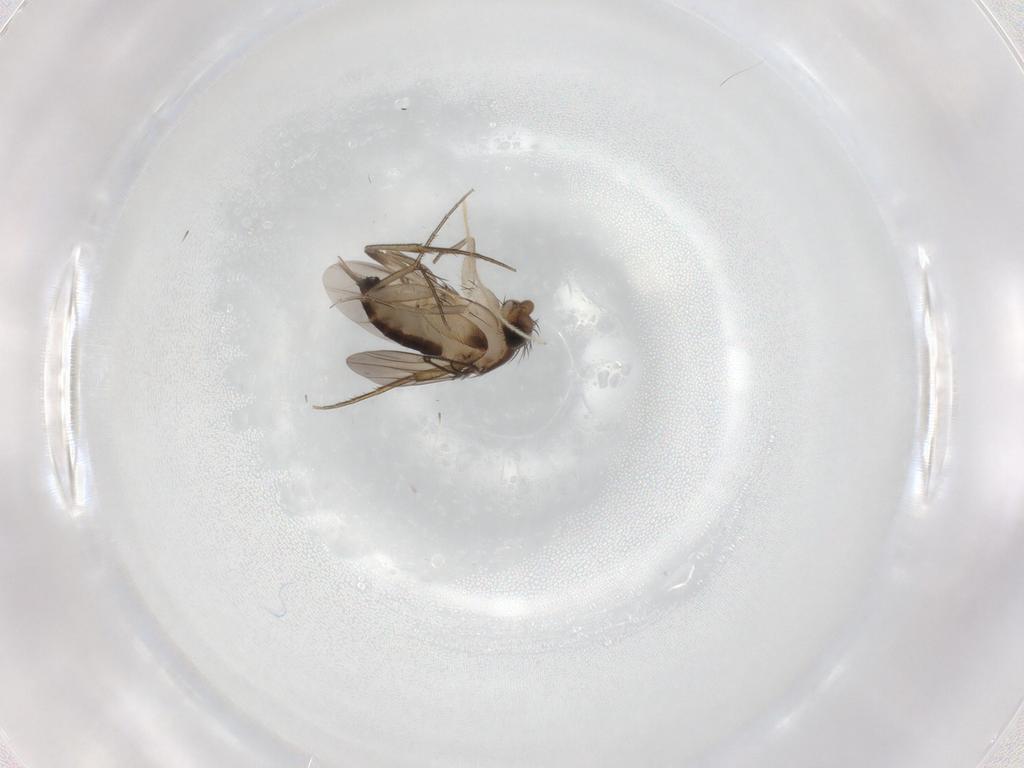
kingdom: Animalia
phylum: Arthropoda
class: Insecta
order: Diptera
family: Phoridae
